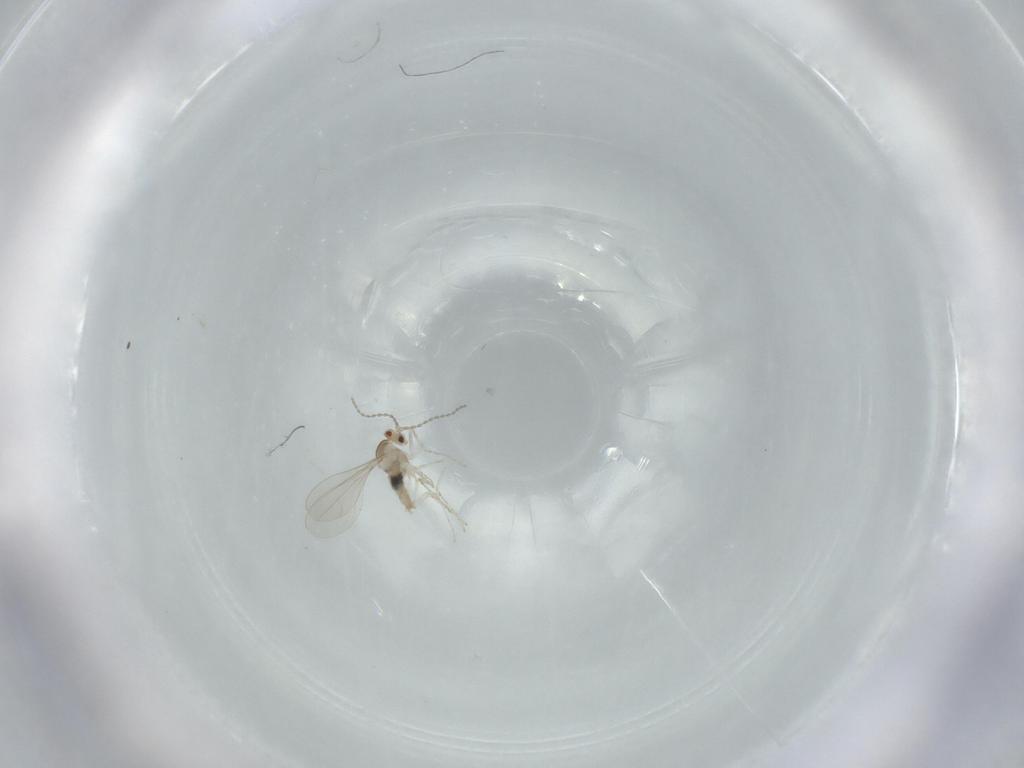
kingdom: Animalia
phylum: Arthropoda
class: Insecta
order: Diptera
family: Cecidomyiidae
